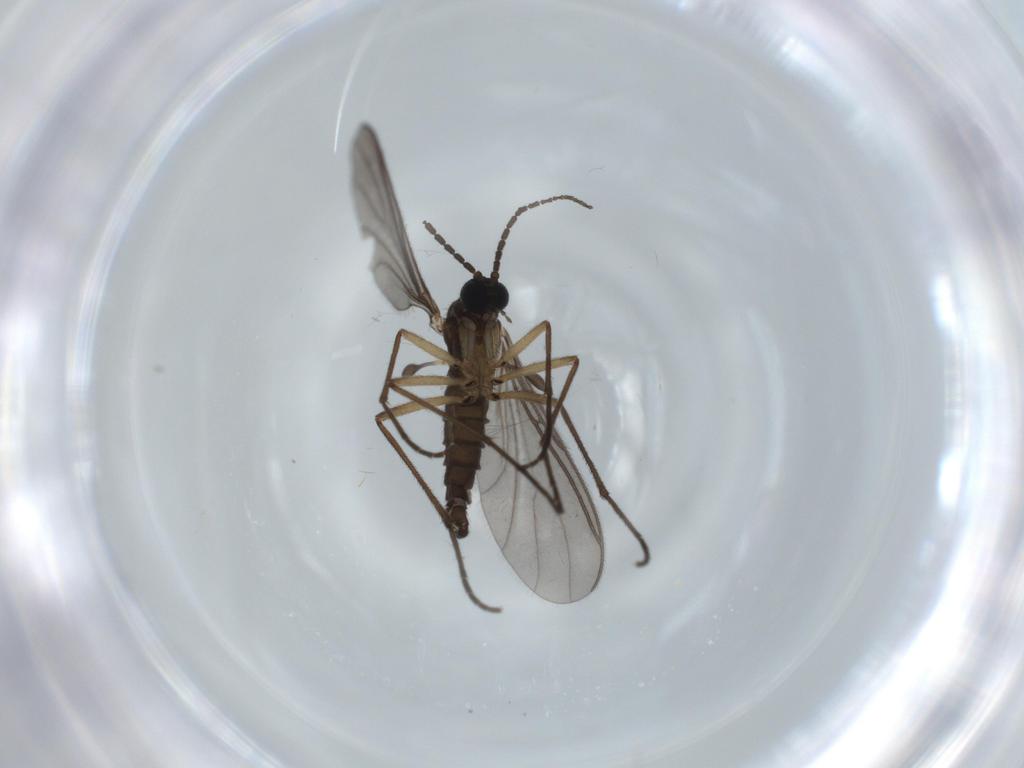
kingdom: Animalia
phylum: Arthropoda
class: Insecta
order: Diptera
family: Sciaridae
